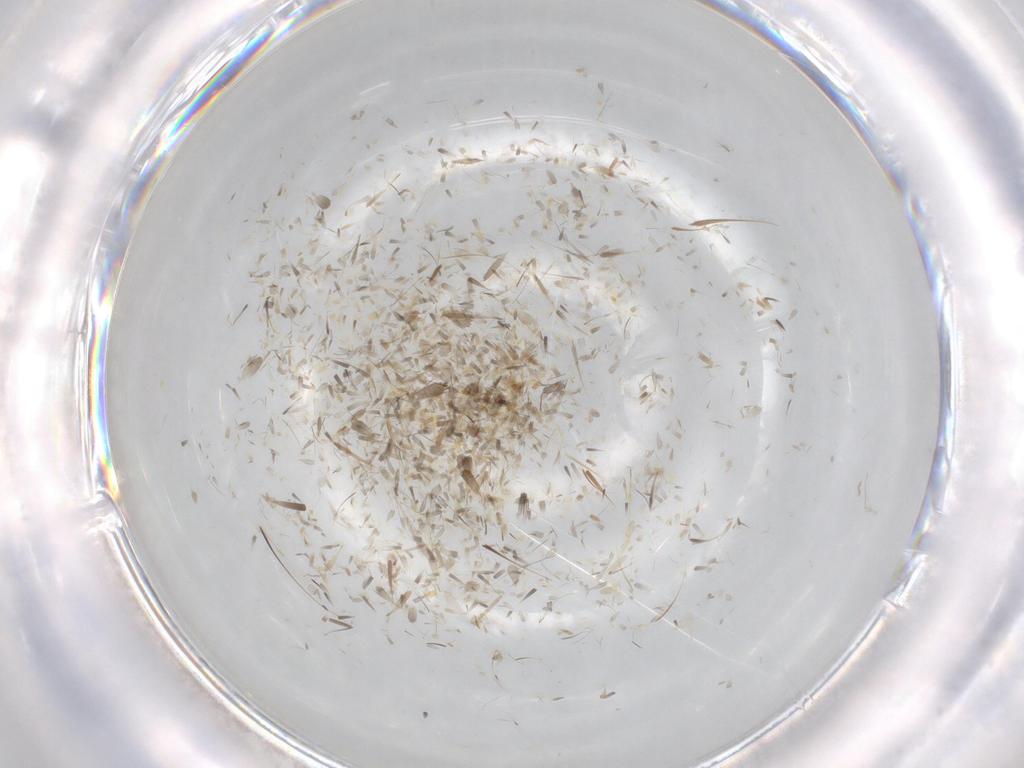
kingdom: Animalia
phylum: Arthropoda
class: Insecta
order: Diptera
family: Cecidomyiidae
